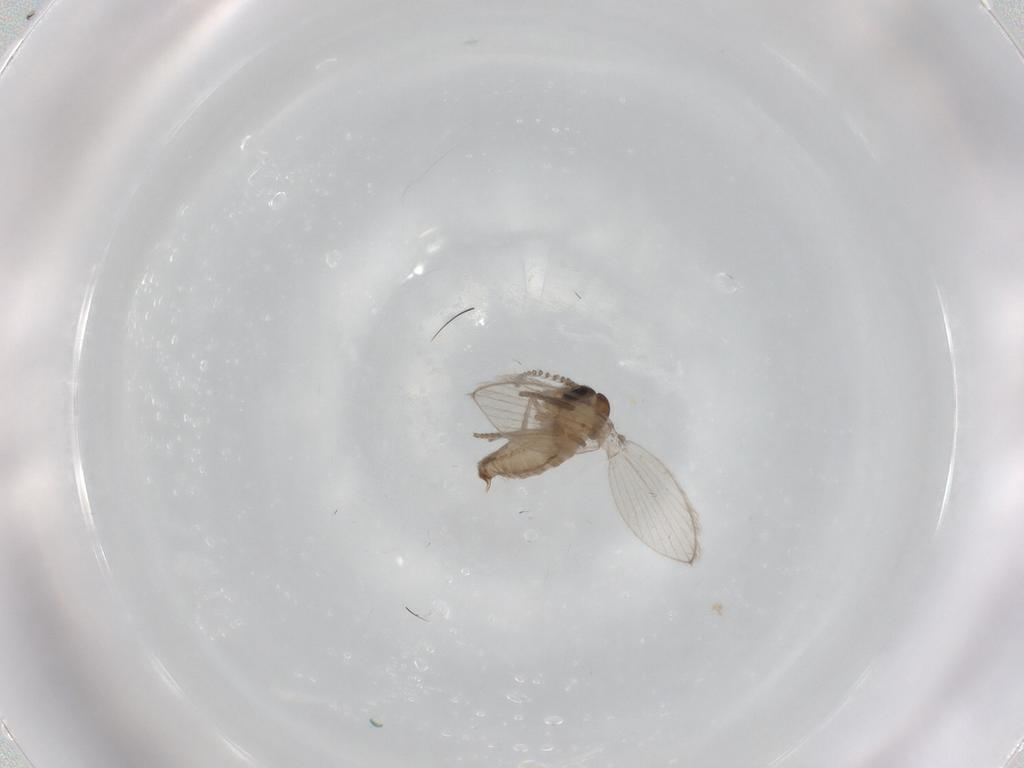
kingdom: Animalia
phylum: Arthropoda
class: Insecta
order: Diptera
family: Psychodidae
